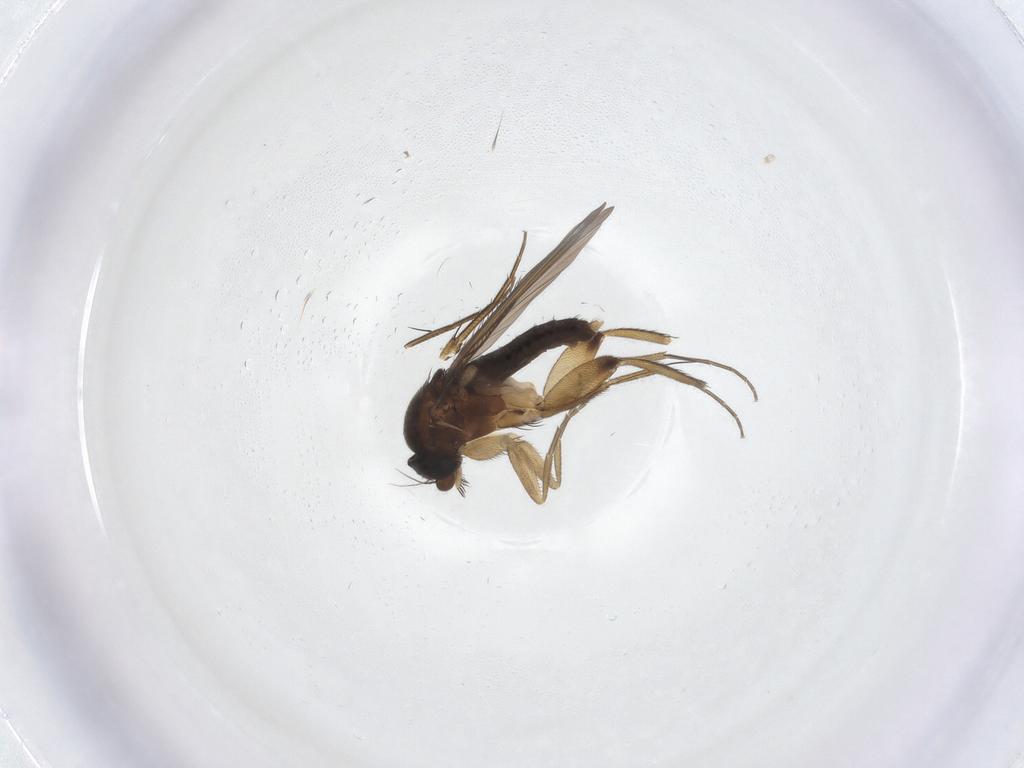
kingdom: Animalia
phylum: Arthropoda
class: Insecta
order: Diptera
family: Phoridae
